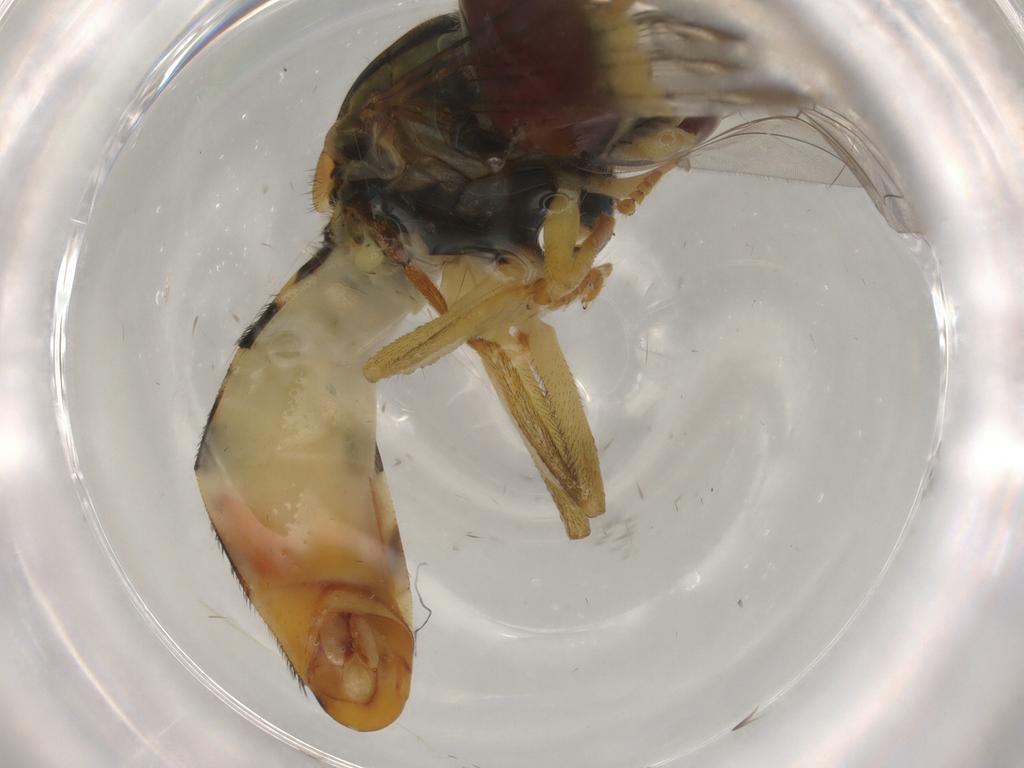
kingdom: Animalia
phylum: Arthropoda
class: Insecta
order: Diptera
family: Syrphidae
